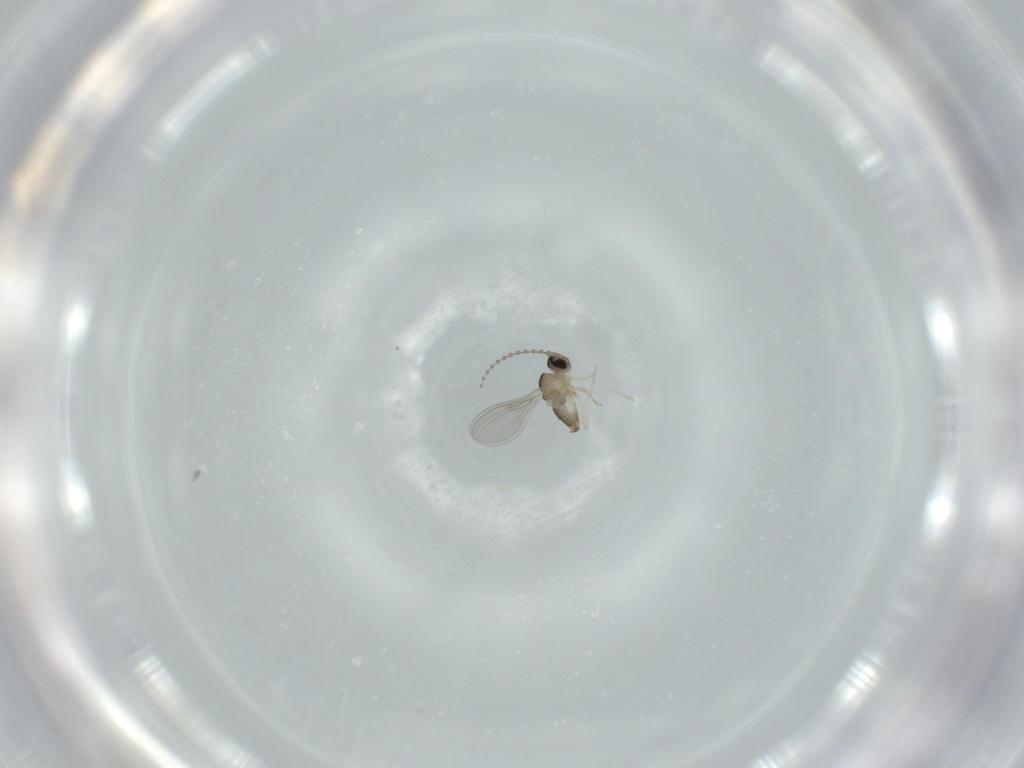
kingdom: Animalia
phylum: Arthropoda
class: Insecta
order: Diptera
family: Cecidomyiidae
